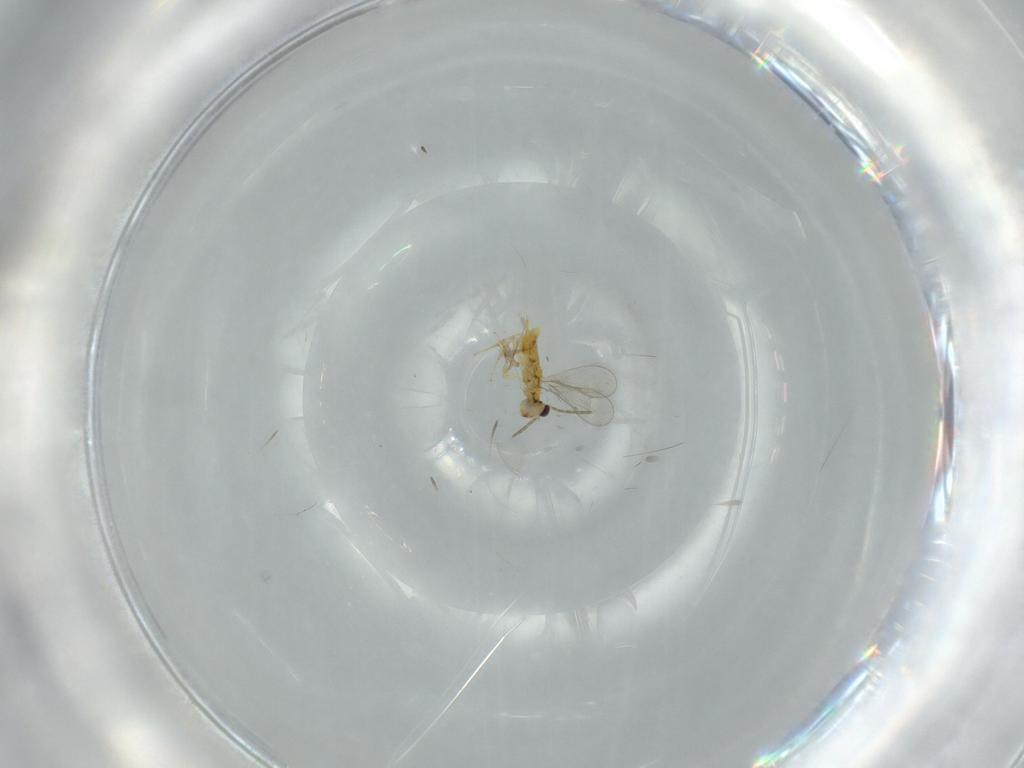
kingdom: Animalia
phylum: Arthropoda
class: Insecta
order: Hymenoptera
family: Aphelinidae
